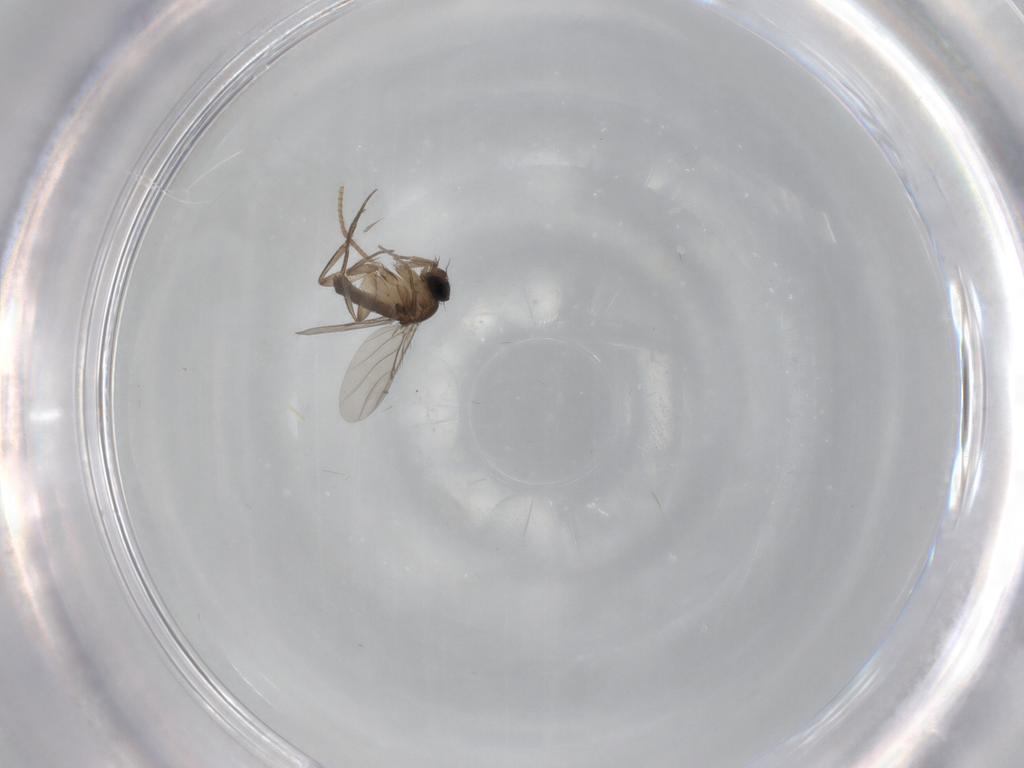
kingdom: Animalia
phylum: Arthropoda
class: Insecta
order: Diptera
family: Phoridae
